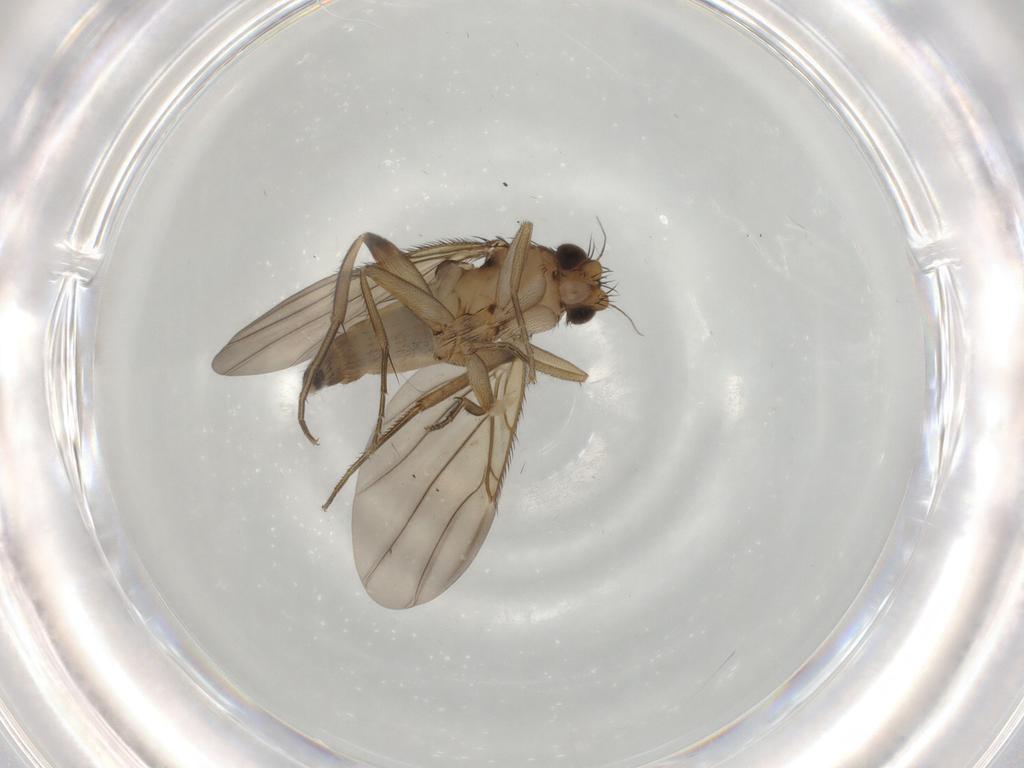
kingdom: Animalia
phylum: Arthropoda
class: Insecta
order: Diptera
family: Phoridae
